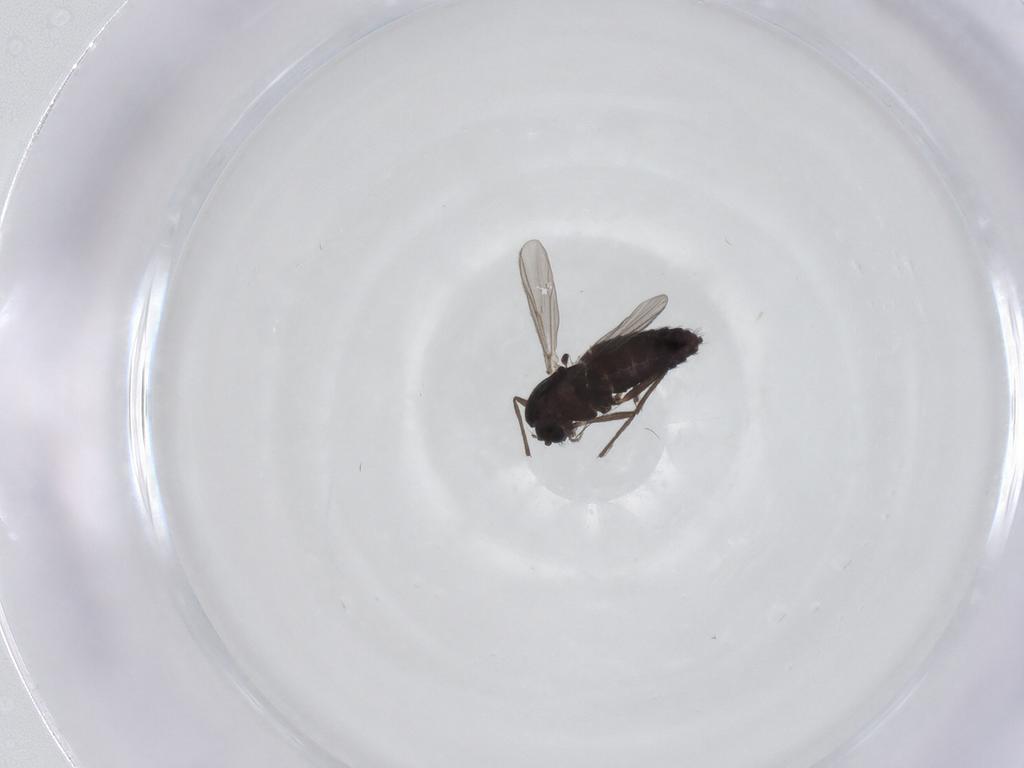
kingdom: Animalia
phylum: Arthropoda
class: Insecta
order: Diptera
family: Chironomidae
